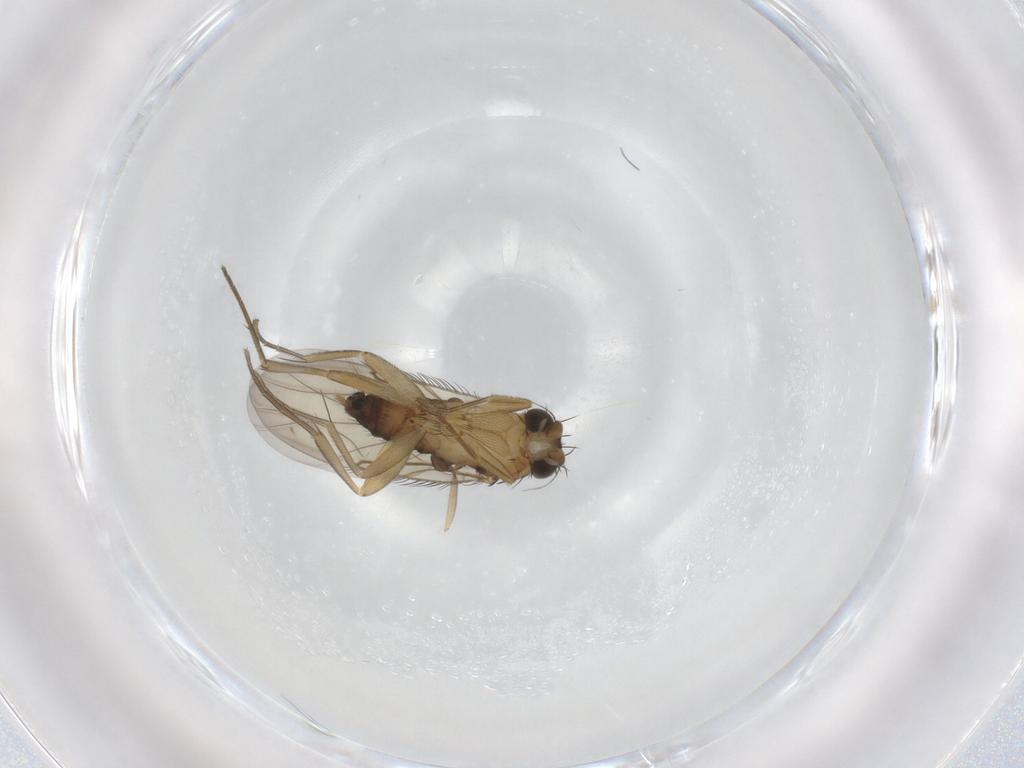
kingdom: Animalia
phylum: Arthropoda
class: Insecta
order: Diptera
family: Phoridae
